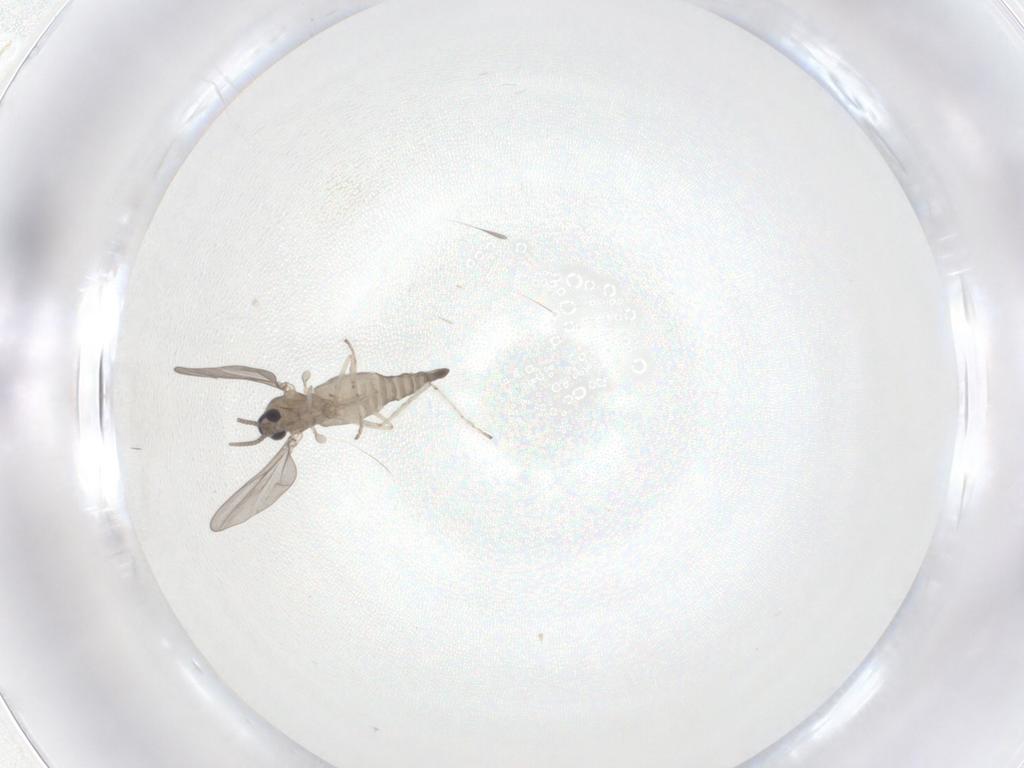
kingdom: Animalia
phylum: Arthropoda
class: Insecta
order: Diptera
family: Cecidomyiidae
